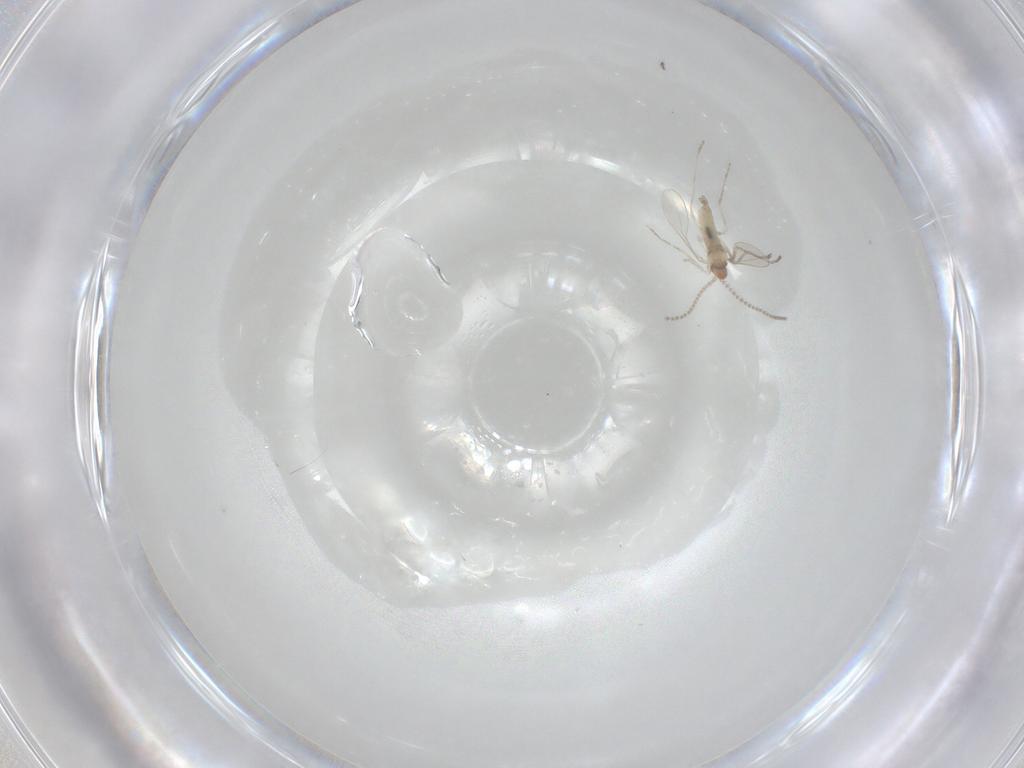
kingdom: Animalia
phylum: Arthropoda
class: Insecta
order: Diptera
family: Cecidomyiidae
